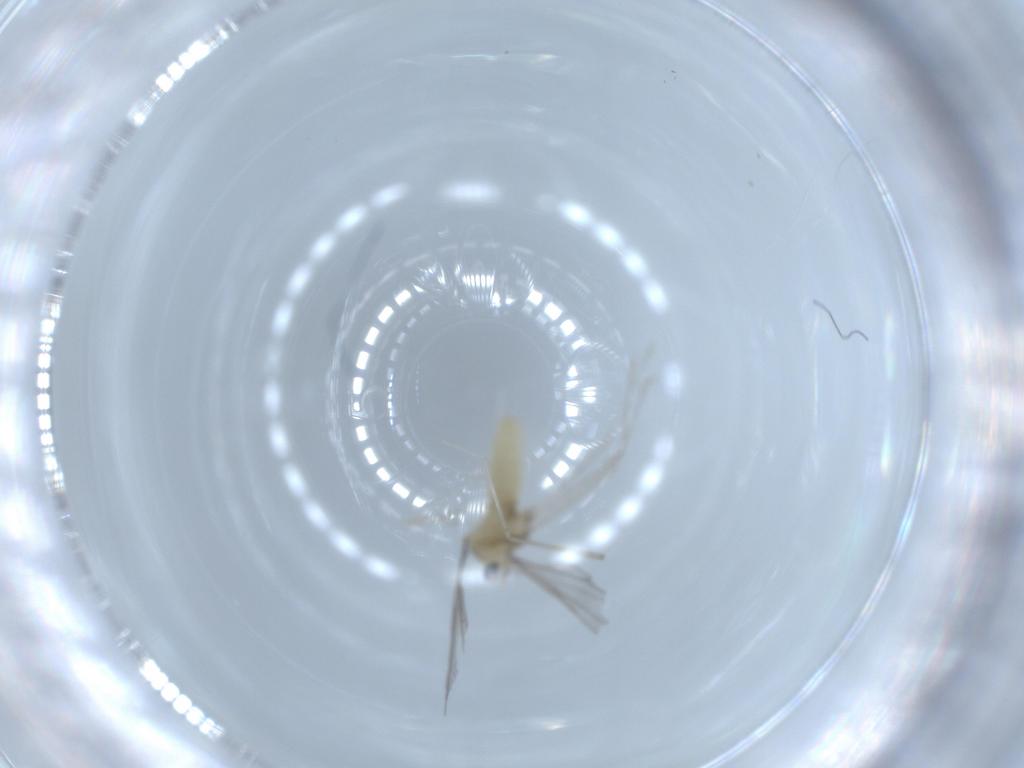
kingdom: Animalia
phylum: Arthropoda
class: Insecta
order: Diptera
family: Cecidomyiidae
